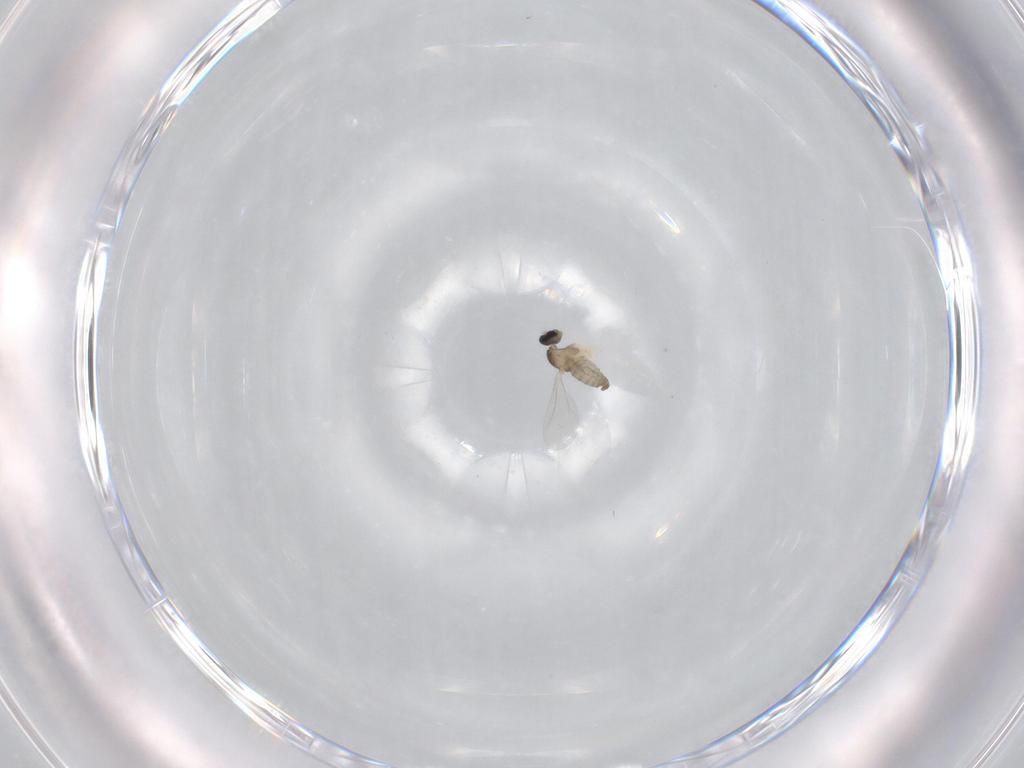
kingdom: Animalia
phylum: Arthropoda
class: Insecta
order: Diptera
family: Cecidomyiidae
